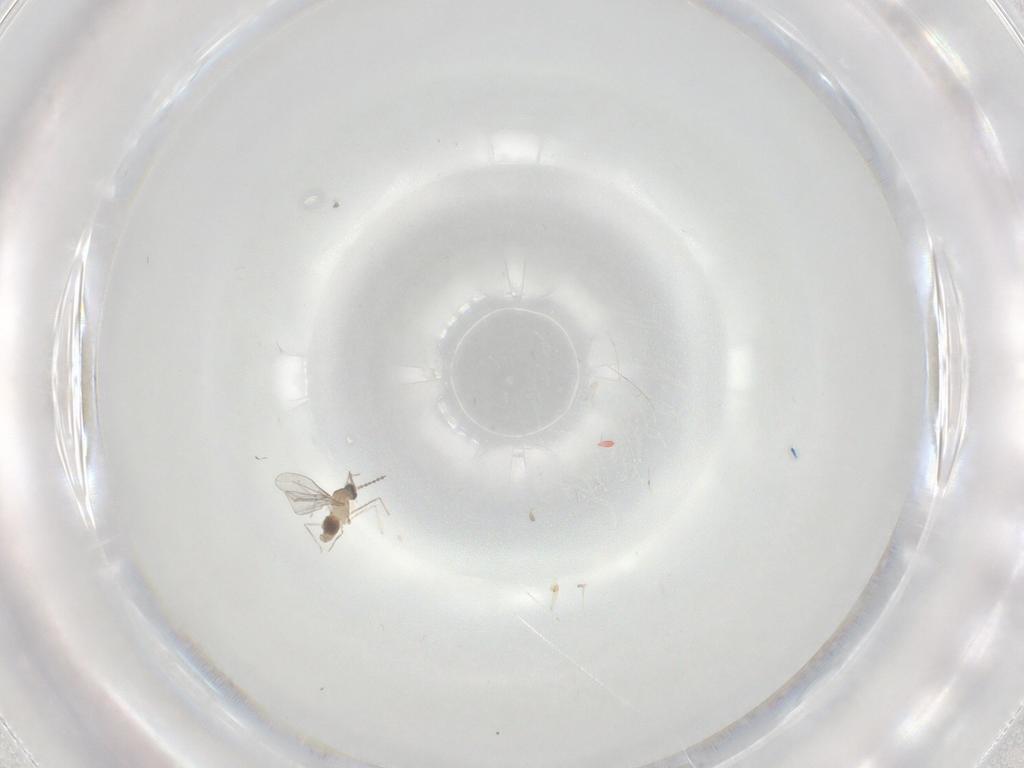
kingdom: Animalia
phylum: Arthropoda
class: Insecta
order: Diptera
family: Cecidomyiidae
